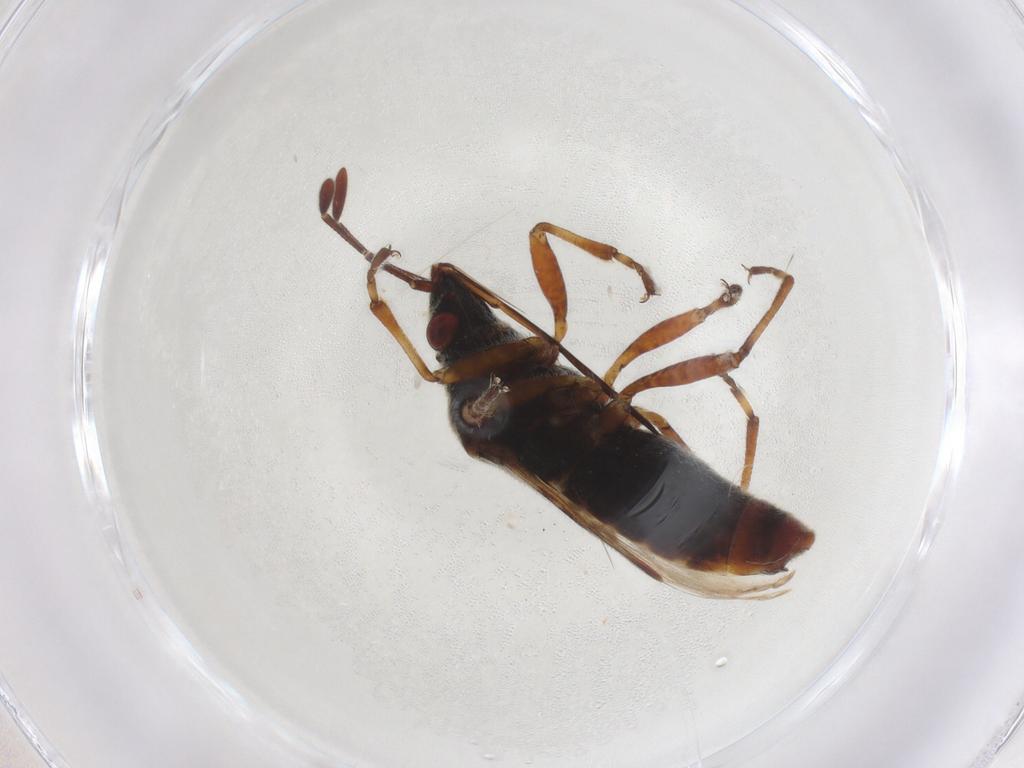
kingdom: Animalia
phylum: Arthropoda
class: Insecta
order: Hemiptera
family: Lygaeidae
